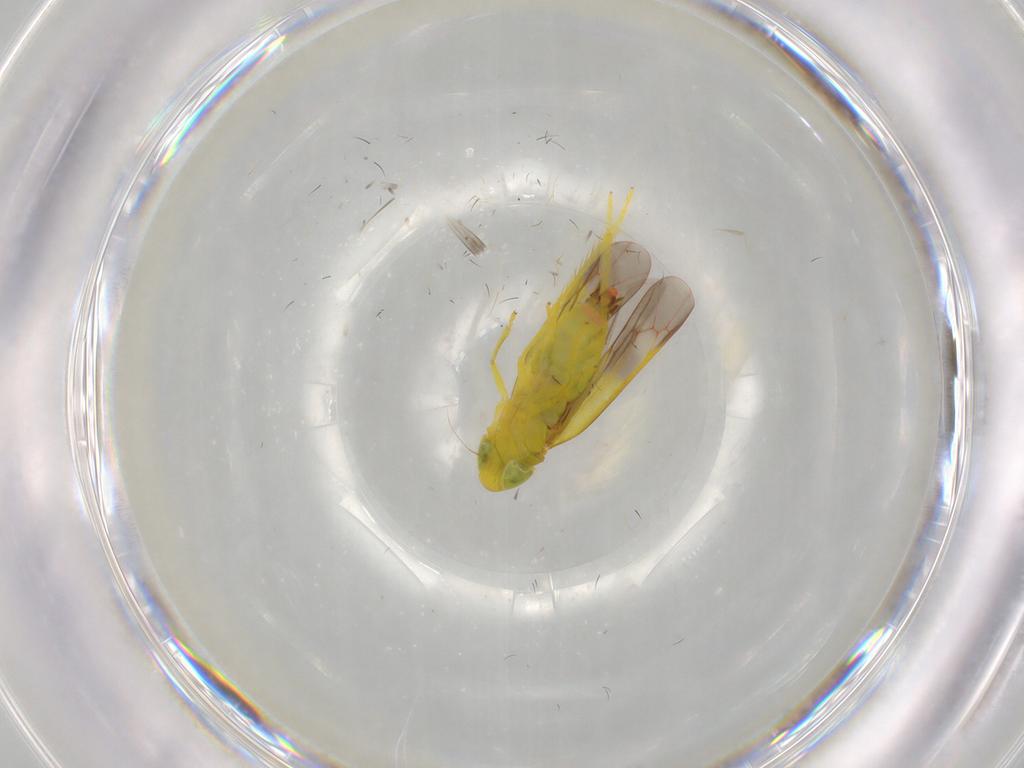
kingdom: Animalia
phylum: Arthropoda
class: Insecta
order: Hemiptera
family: Cicadellidae
